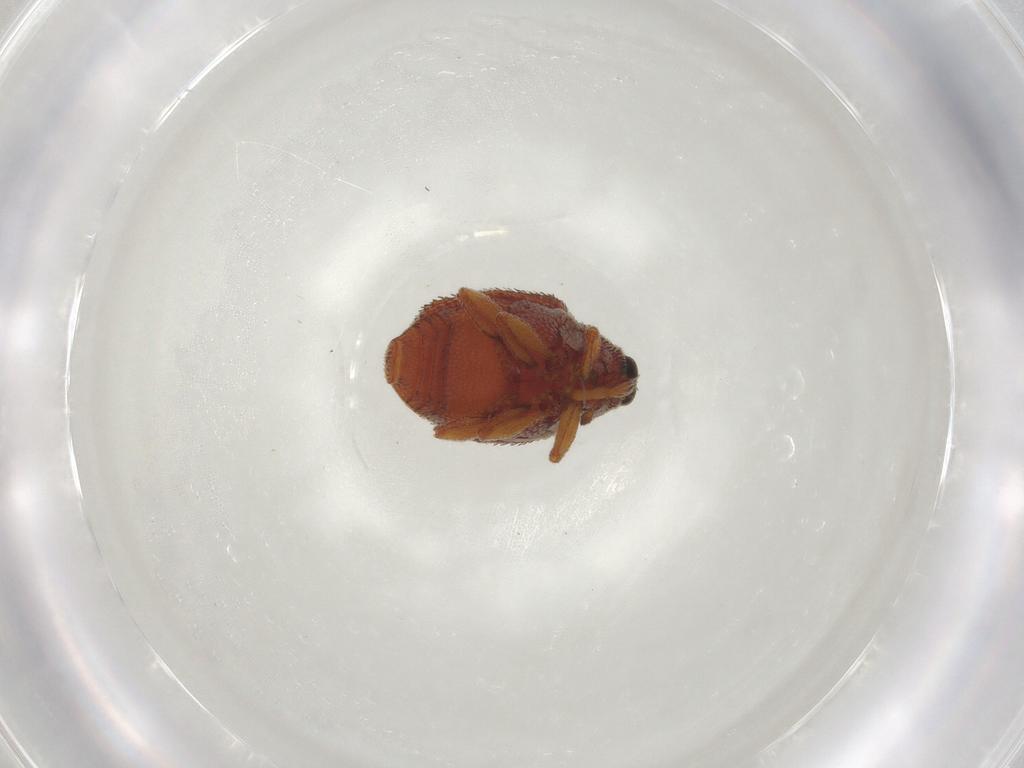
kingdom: Animalia
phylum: Arthropoda
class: Insecta
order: Coleoptera
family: Curculionidae
